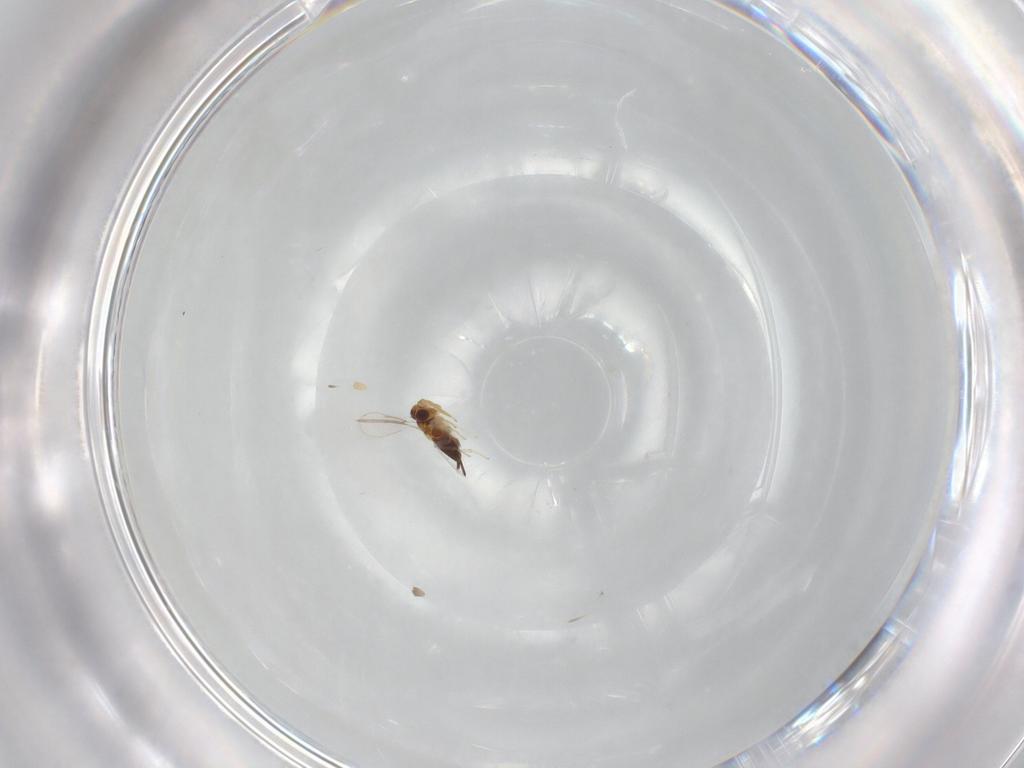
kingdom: Animalia
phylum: Arthropoda
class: Insecta
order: Hymenoptera
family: Aphelinidae
